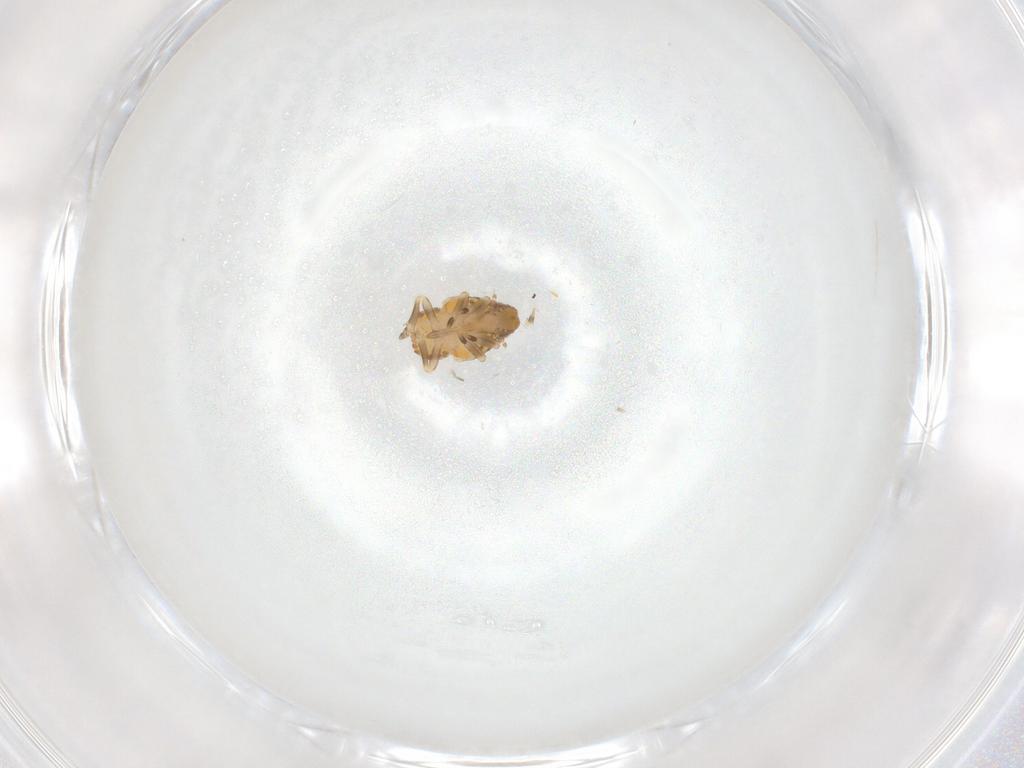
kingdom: Animalia
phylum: Arthropoda
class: Insecta
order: Hemiptera
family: Flatidae
